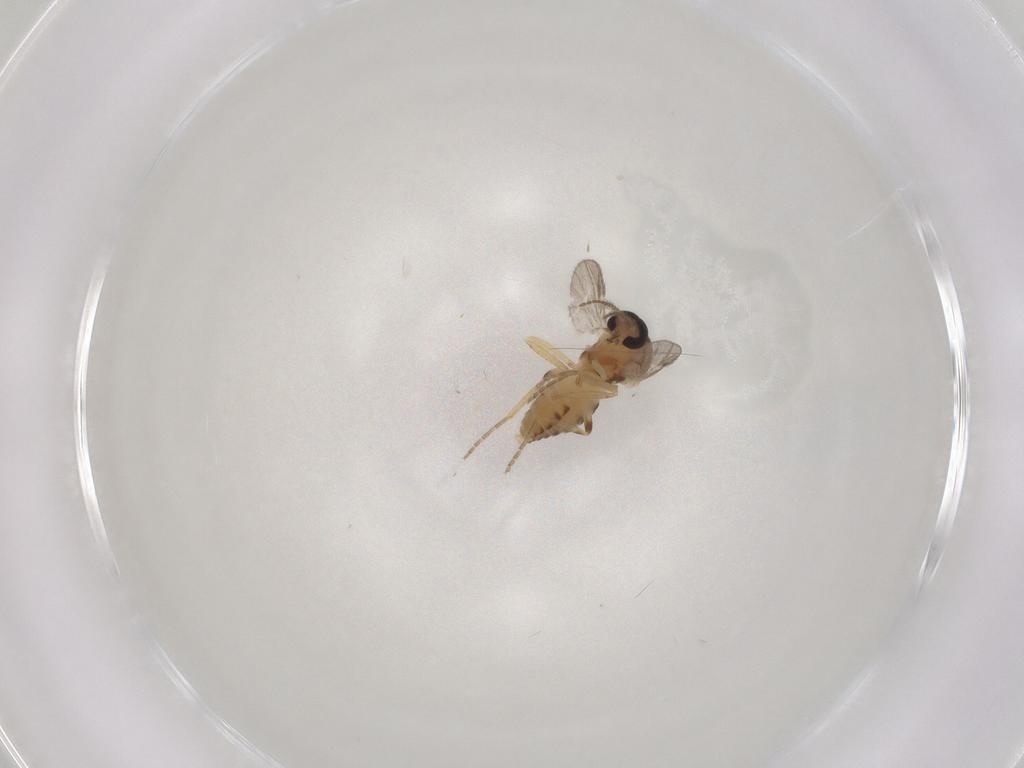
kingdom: Animalia
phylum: Arthropoda
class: Insecta
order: Diptera
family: Ceratopogonidae
